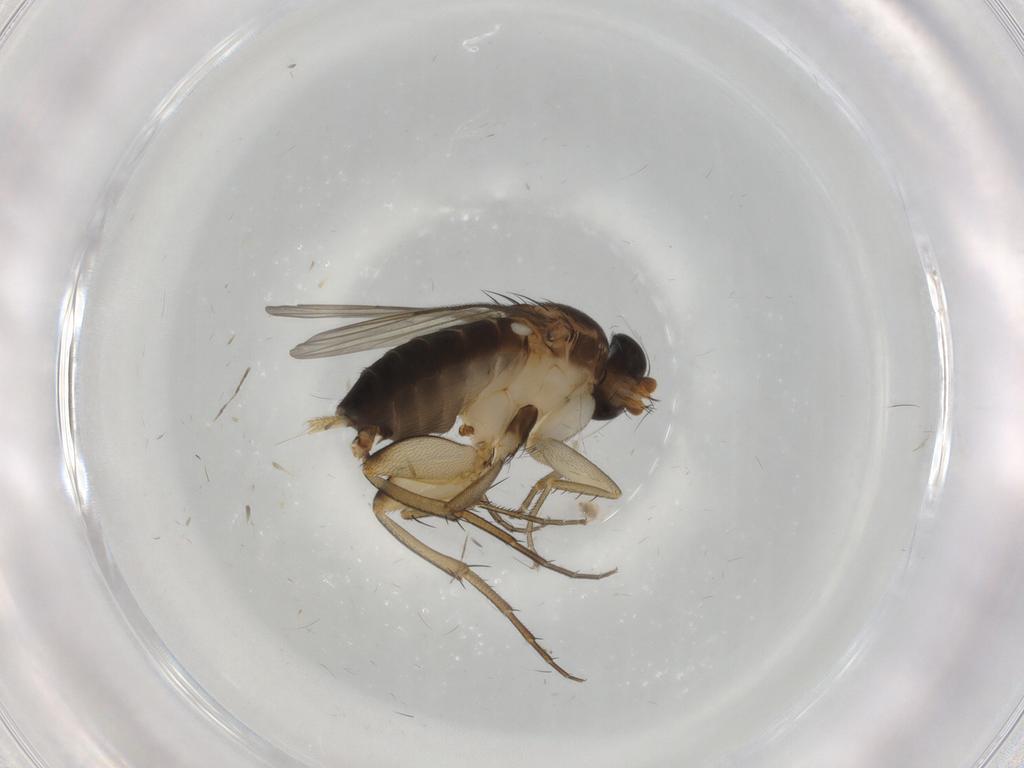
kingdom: Animalia
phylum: Arthropoda
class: Insecta
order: Diptera
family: Phoridae
